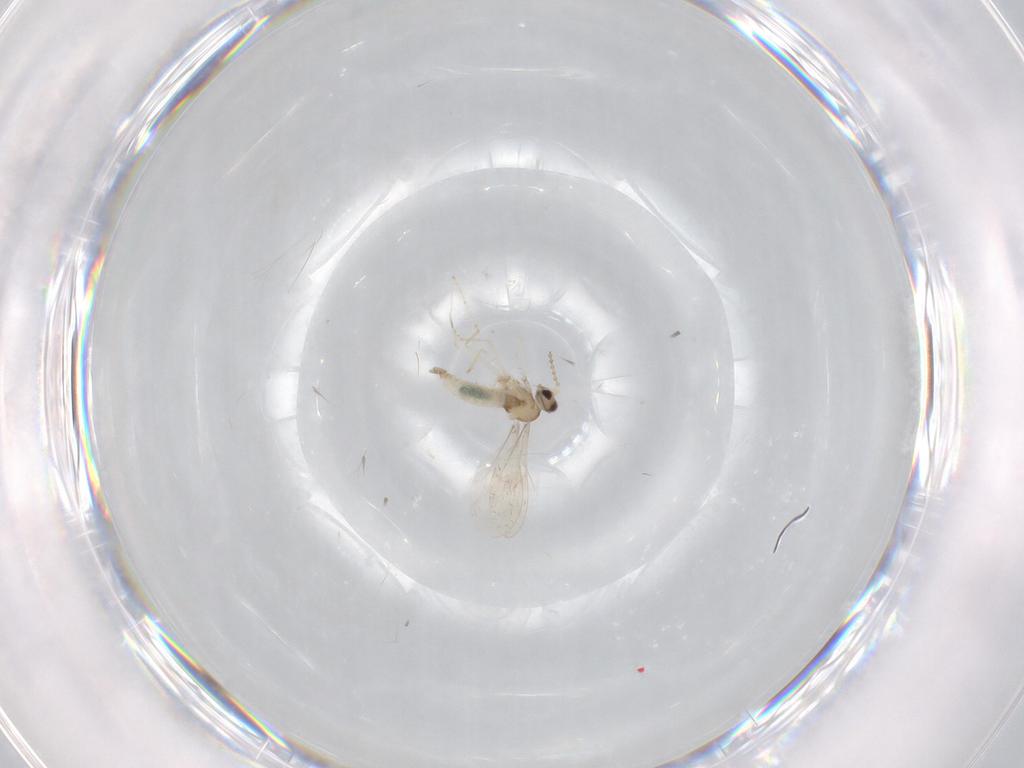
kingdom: Animalia
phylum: Arthropoda
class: Insecta
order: Diptera
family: Cecidomyiidae
